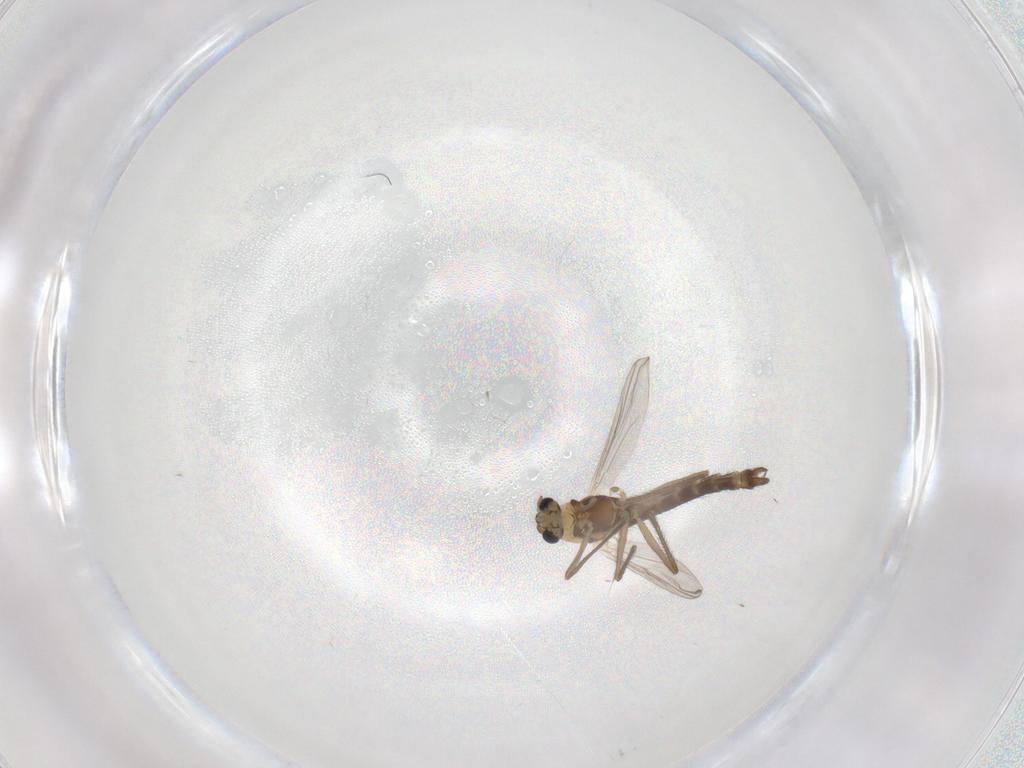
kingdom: Animalia
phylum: Arthropoda
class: Insecta
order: Diptera
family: Chironomidae
